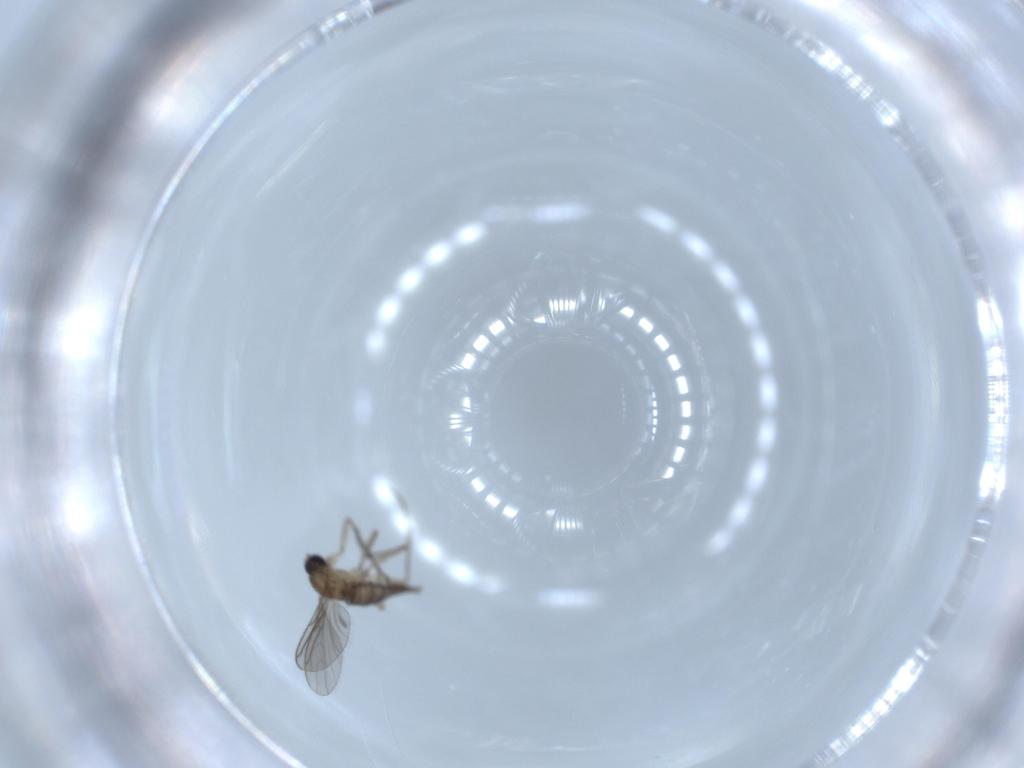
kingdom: Animalia
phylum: Arthropoda
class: Insecta
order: Diptera
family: Sciaridae
